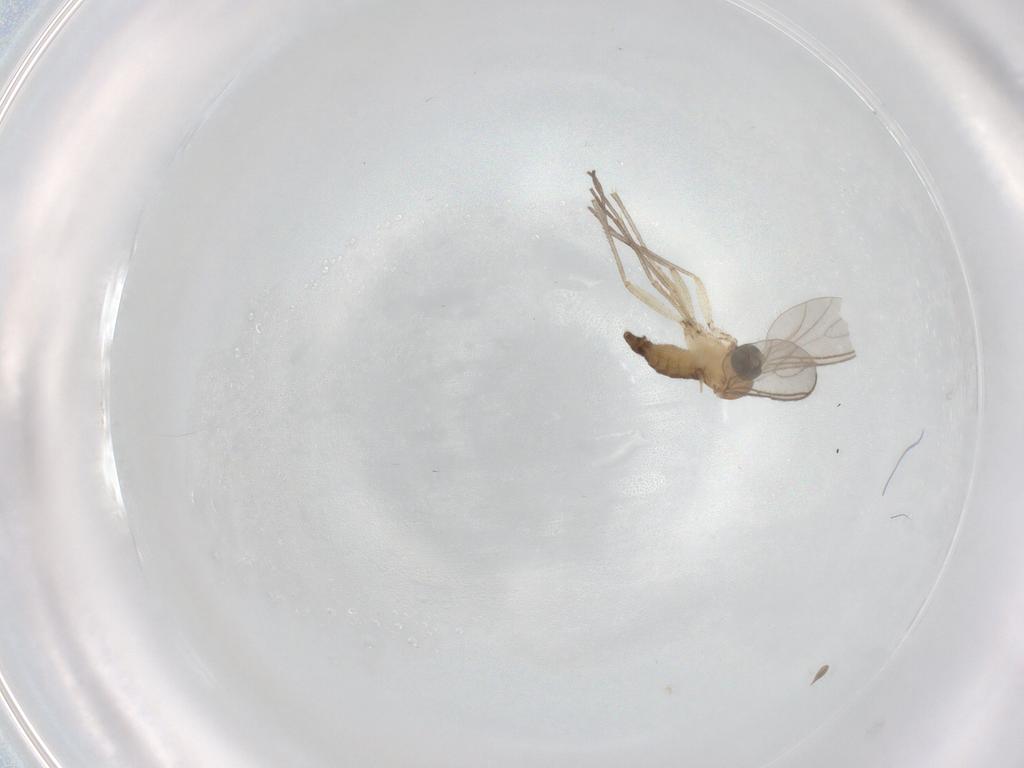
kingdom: Animalia
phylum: Arthropoda
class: Insecta
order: Diptera
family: Sciaridae
